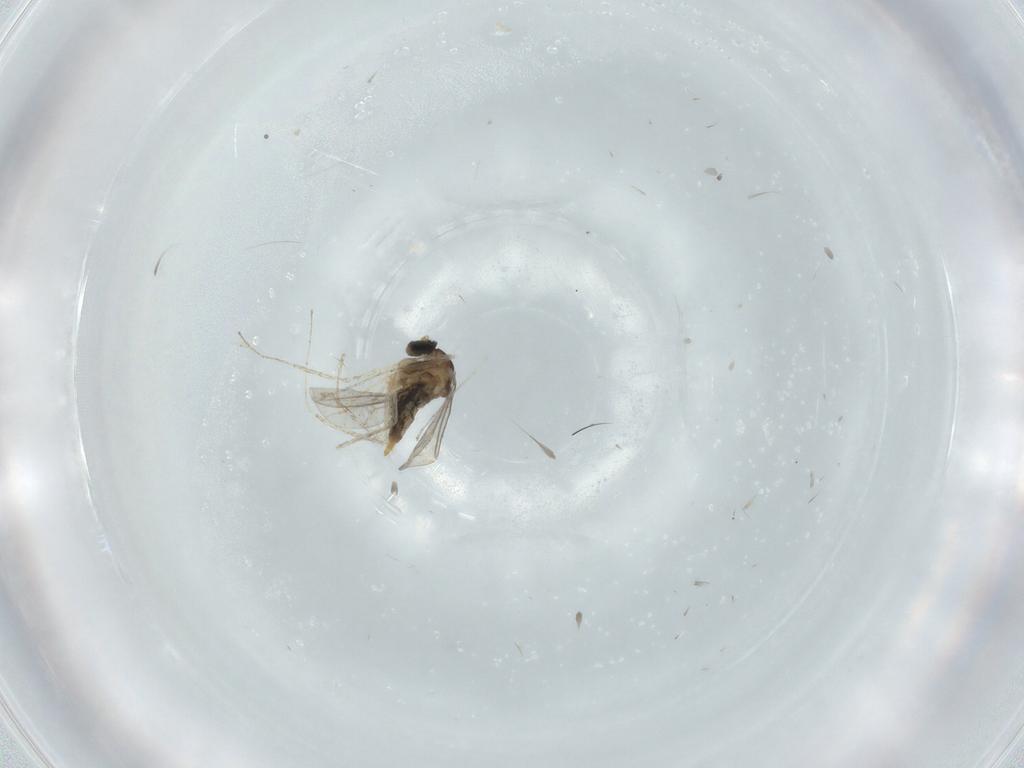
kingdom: Animalia
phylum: Arthropoda
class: Insecta
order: Diptera
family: Cecidomyiidae
